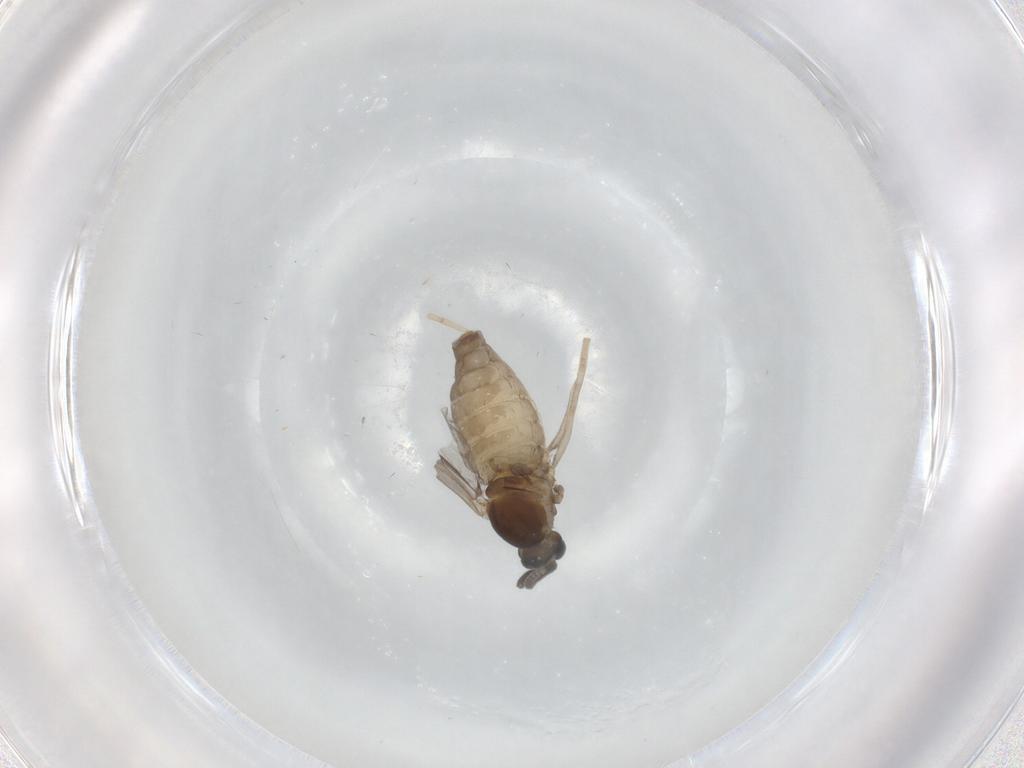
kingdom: Animalia
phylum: Arthropoda
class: Insecta
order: Diptera
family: Cecidomyiidae
